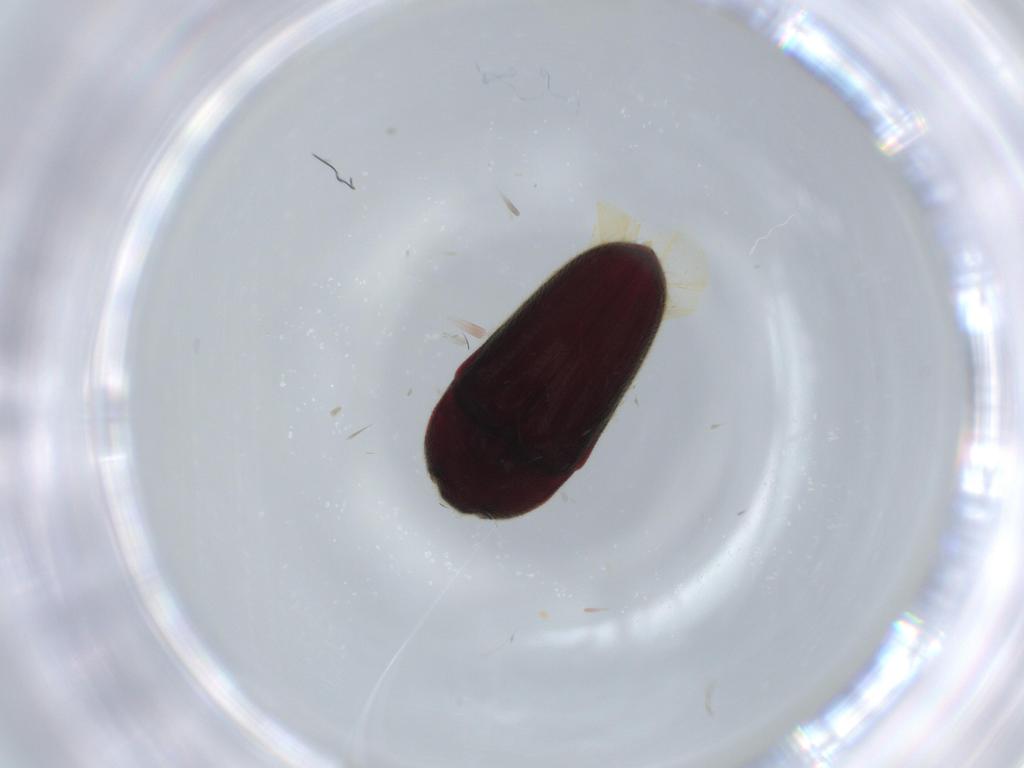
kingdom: Animalia
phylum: Arthropoda
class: Insecta
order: Coleoptera
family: Throscidae
